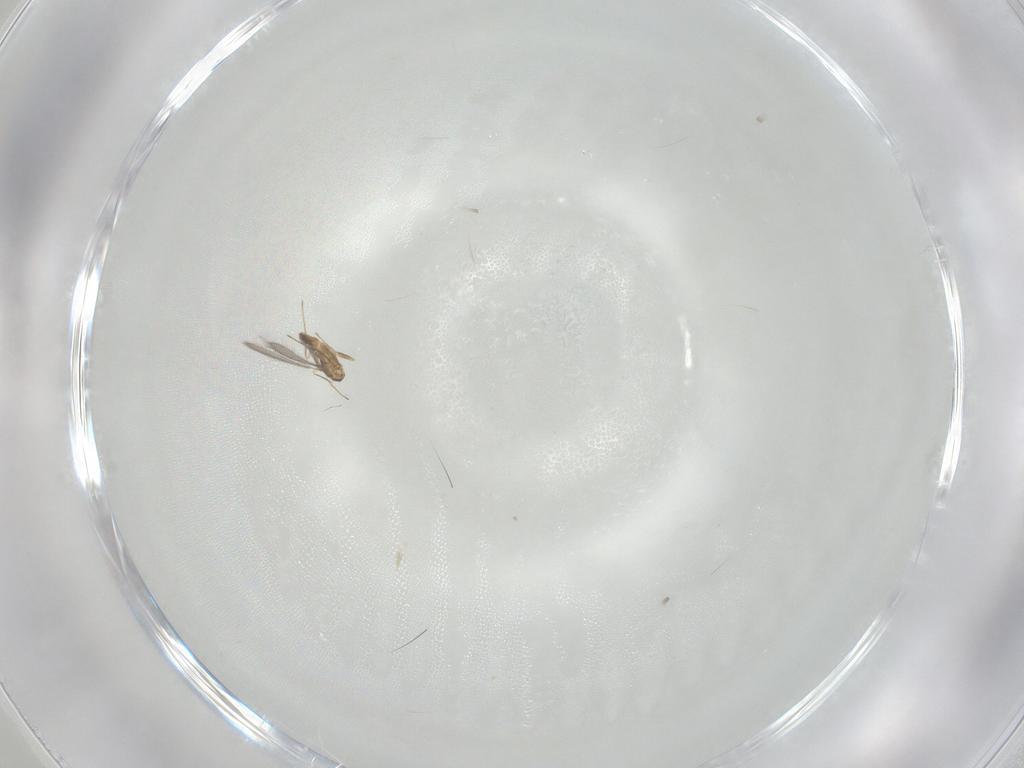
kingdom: Animalia
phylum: Arthropoda
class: Insecta
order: Hymenoptera
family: Mymaridae
